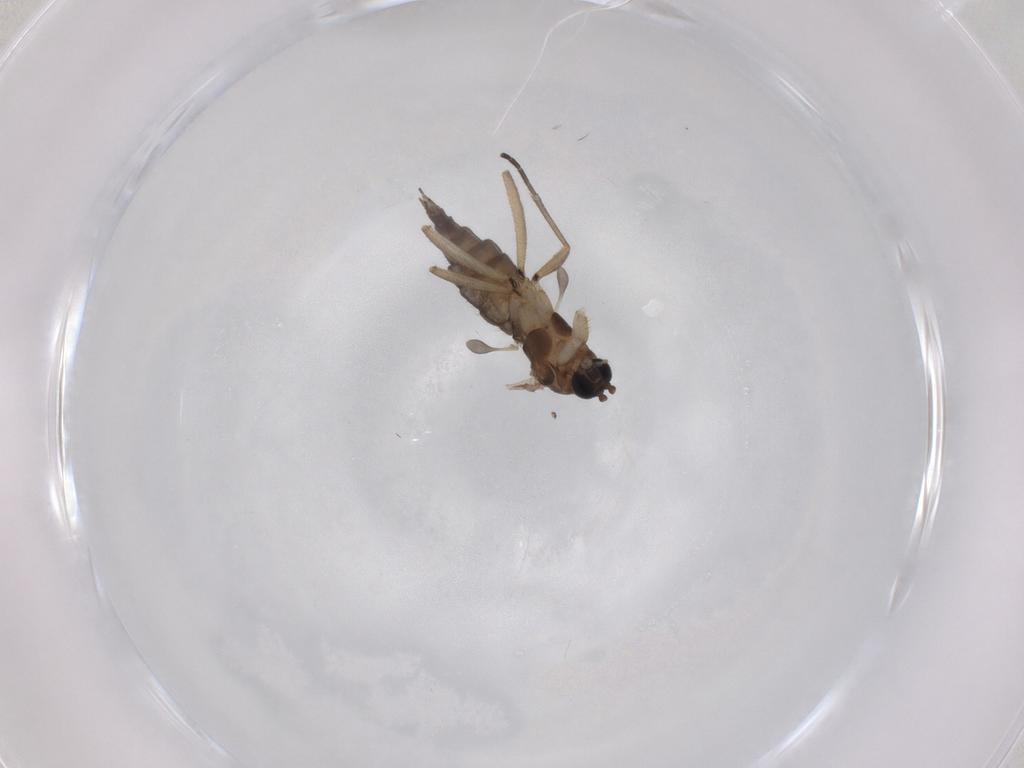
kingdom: Animalia
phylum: Arthropoda
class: Insecta
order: Diptera
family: Sciaridae
